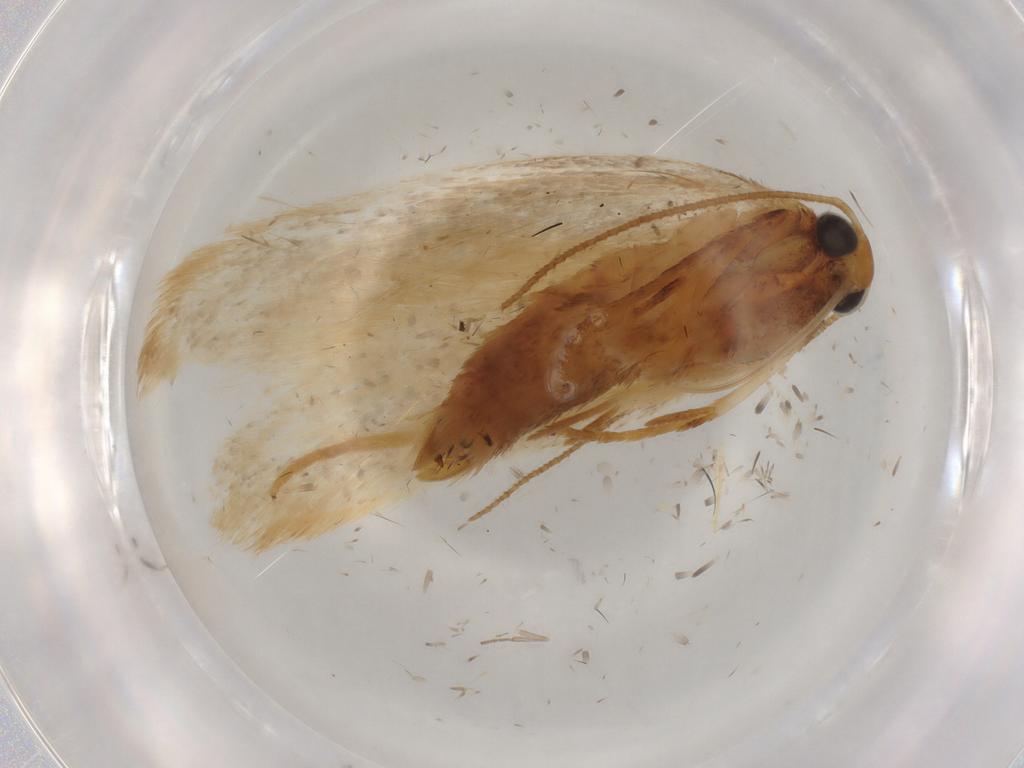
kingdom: Animalia
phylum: Arthropoda
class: Insecta
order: Lepidoptera
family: Gelechiidae
